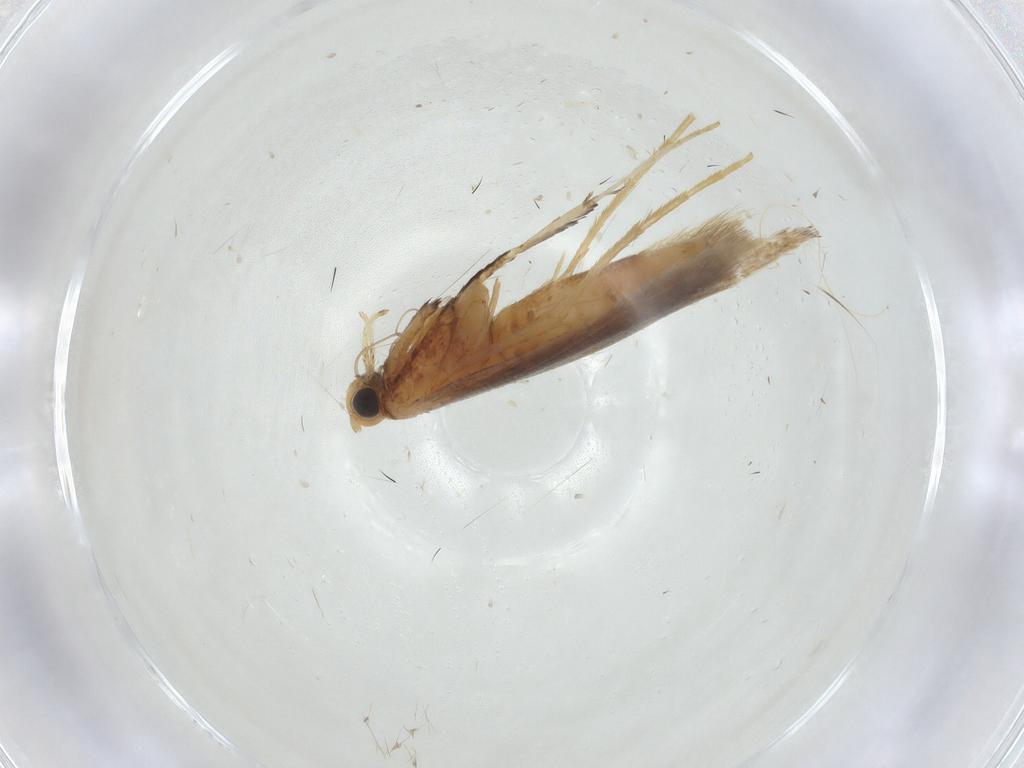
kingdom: Animalia
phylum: Arthropoda
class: Insecta
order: Lepidoptera
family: Gracillariidae
